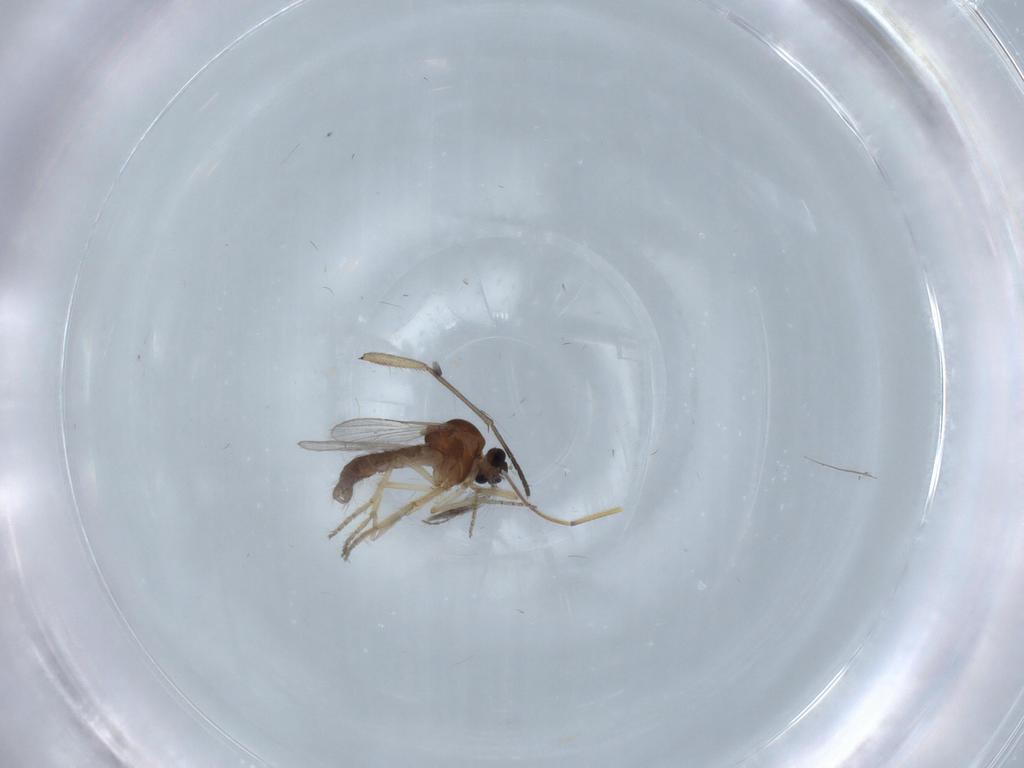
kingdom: Animalia
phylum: Arthropoda
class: Insecta
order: Diptera
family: Ceratopogonidae
